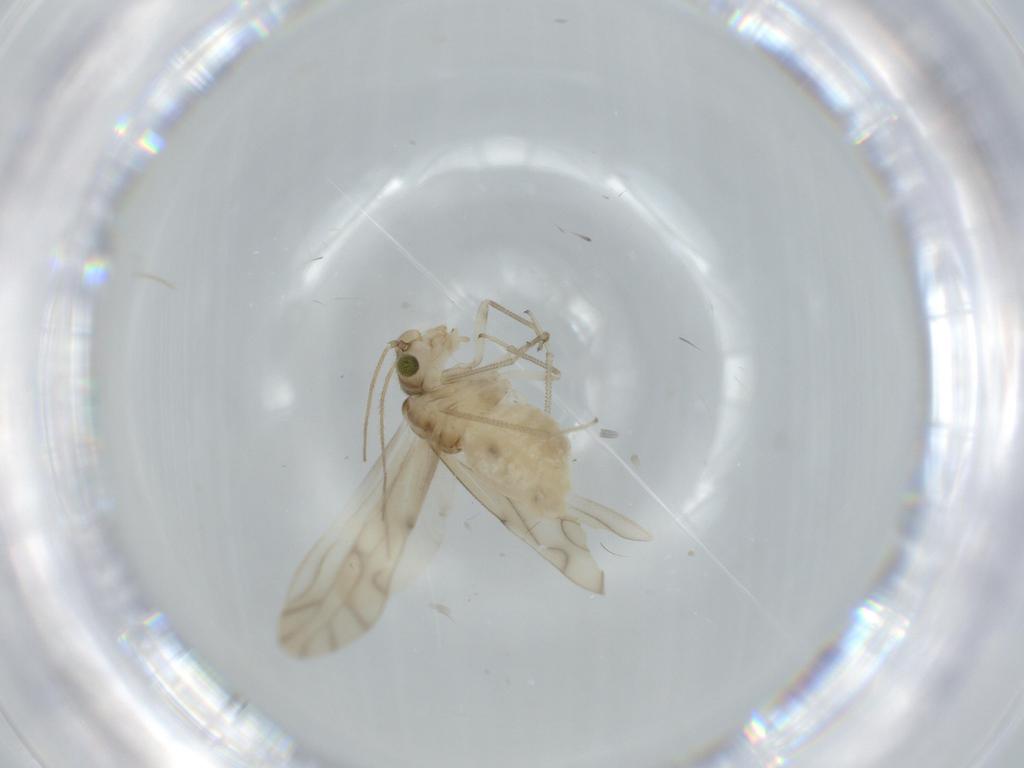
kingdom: Animalia
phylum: Arthropoda
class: Insecta
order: Psocodea
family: Caeciliusidae
